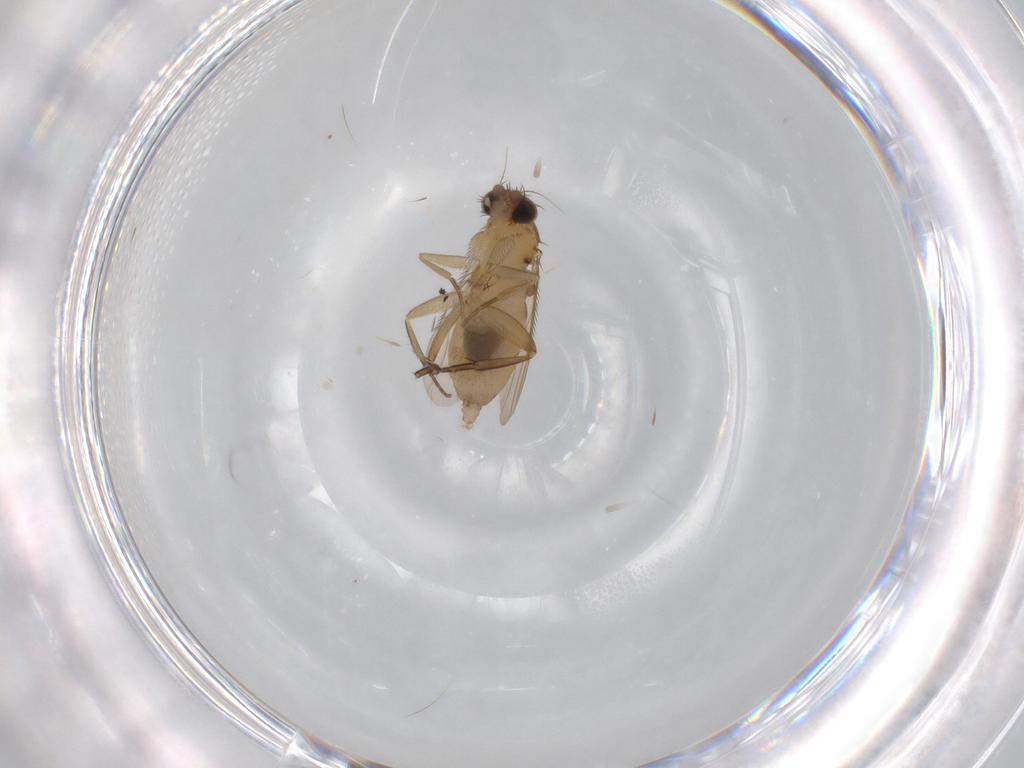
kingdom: Animalia
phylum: Arthropoda
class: Insecta
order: Diptera
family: Phoridae
